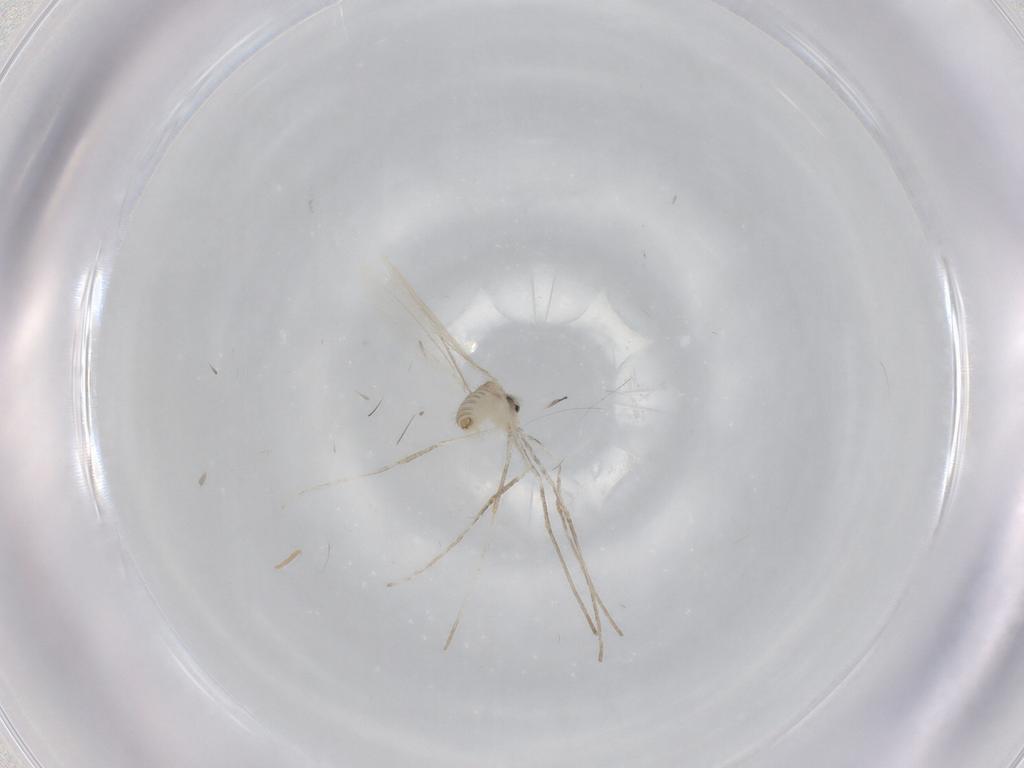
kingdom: Animalia
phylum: Arthropoda
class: Insecta
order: Diptera
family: Cecidomyiidae
